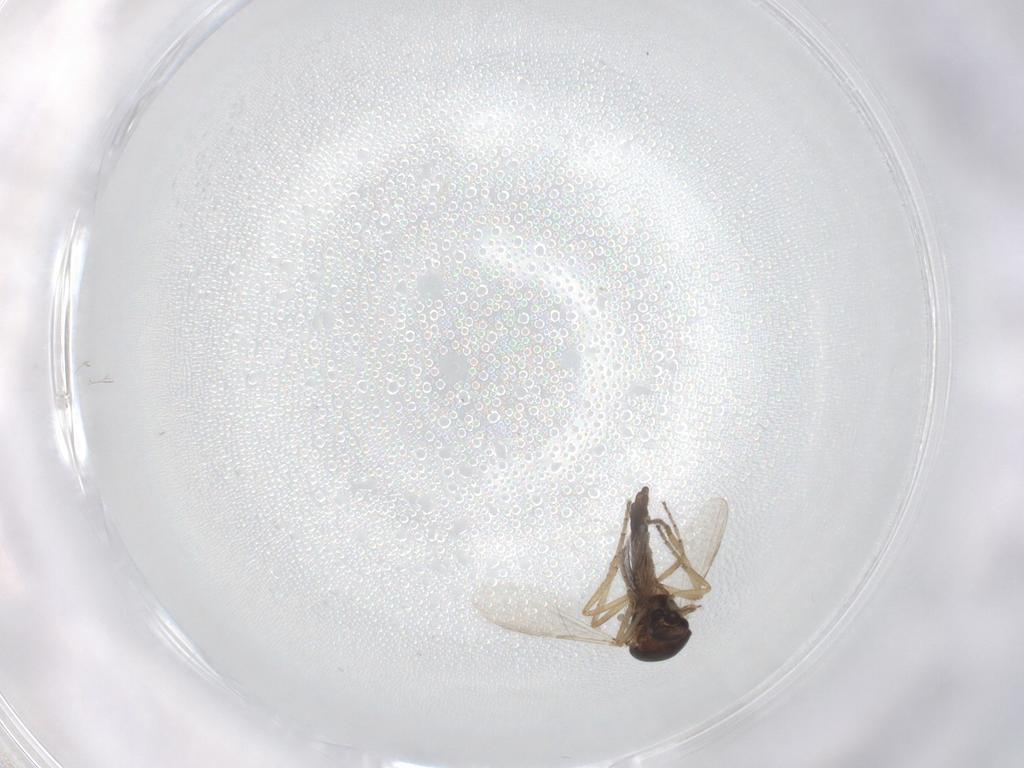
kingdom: Animalia
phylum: Arthropoda
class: Insecta
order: Diptera
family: Ceratopogonidae
